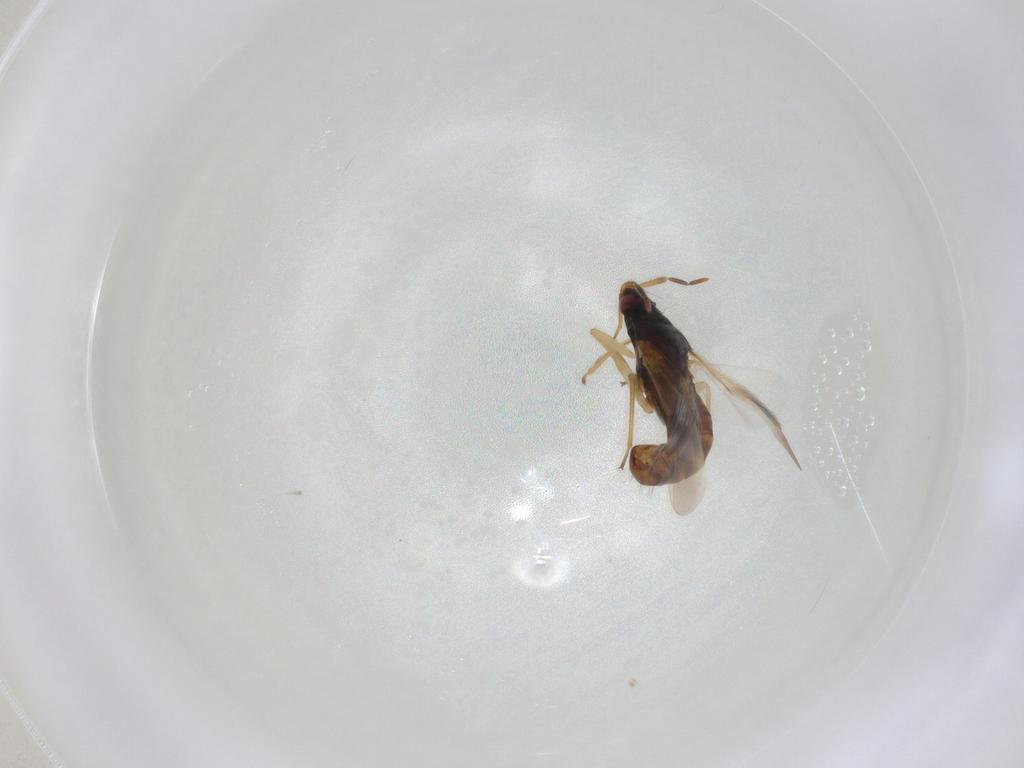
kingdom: Animalia
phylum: Arthropoda
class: Insecta
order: Hemiptera
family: Anthocoridae
